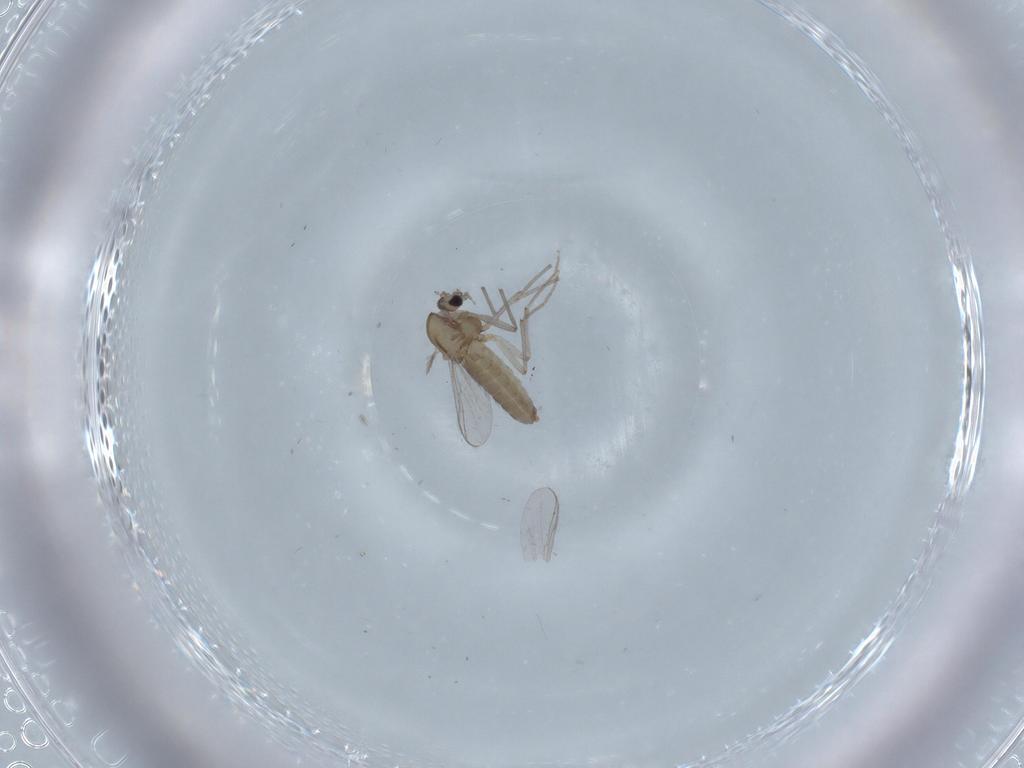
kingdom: Animalia
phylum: Arthropoda
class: Insecta
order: Diptera
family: Chironomidae
